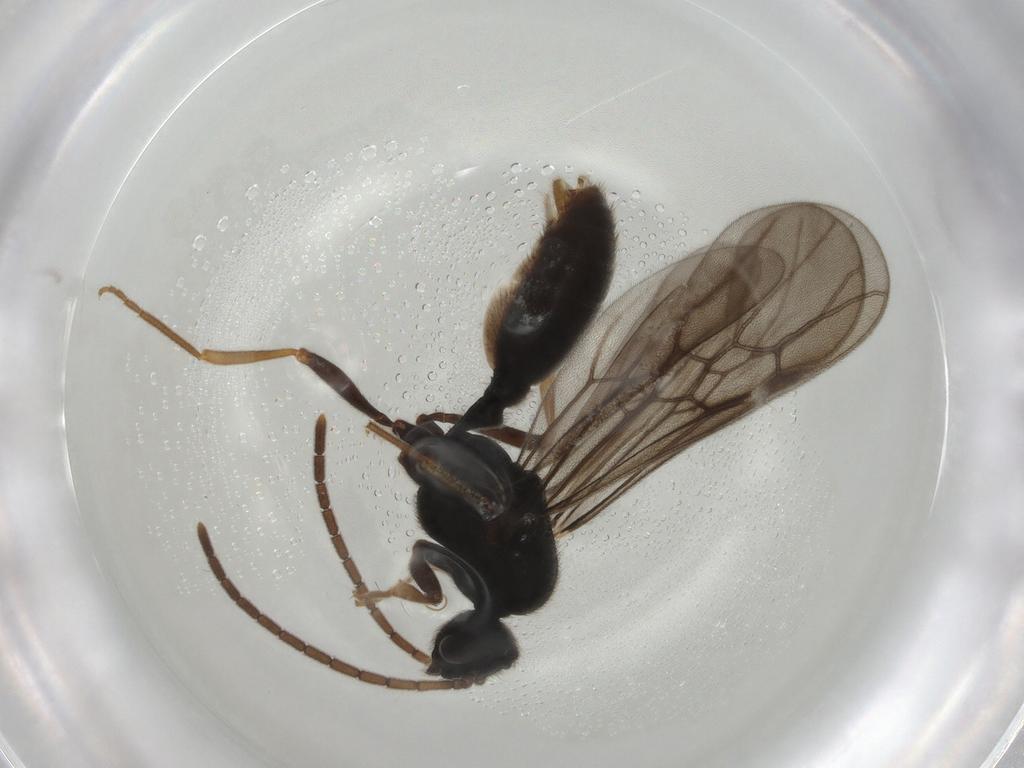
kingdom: Animalia
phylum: Arthropoda
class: Insecta
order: Hymenoptera
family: Formicidae
